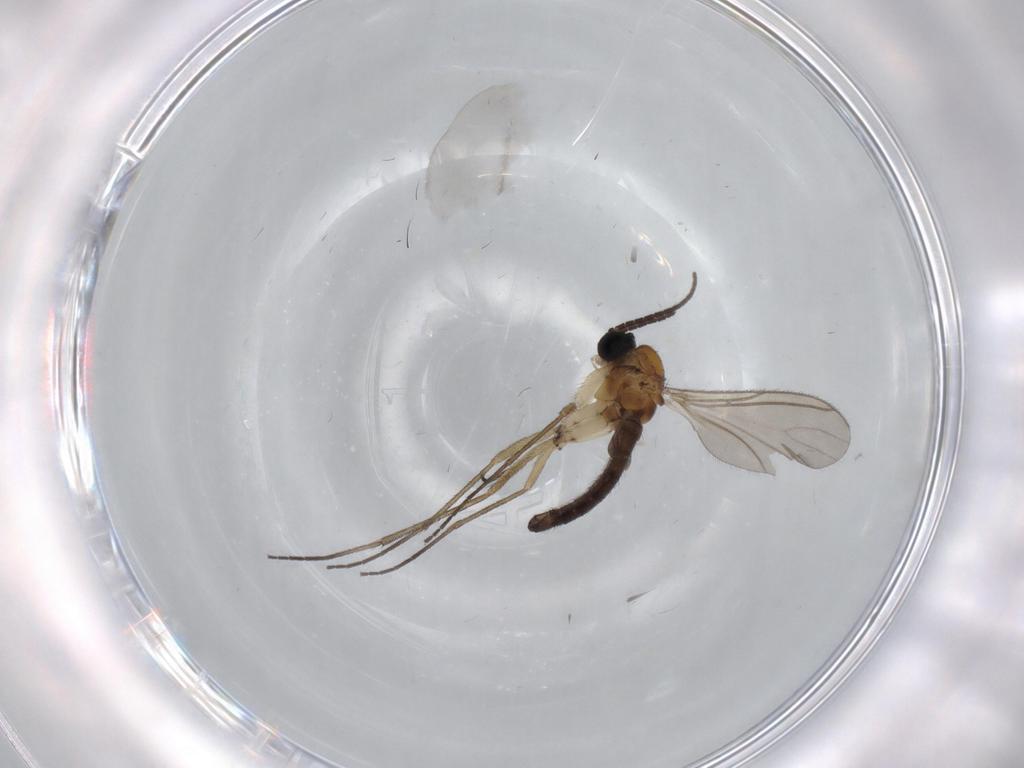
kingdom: Animalia
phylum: Arthropoda
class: Insecta
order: Diptera
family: Cecidomyiidae
